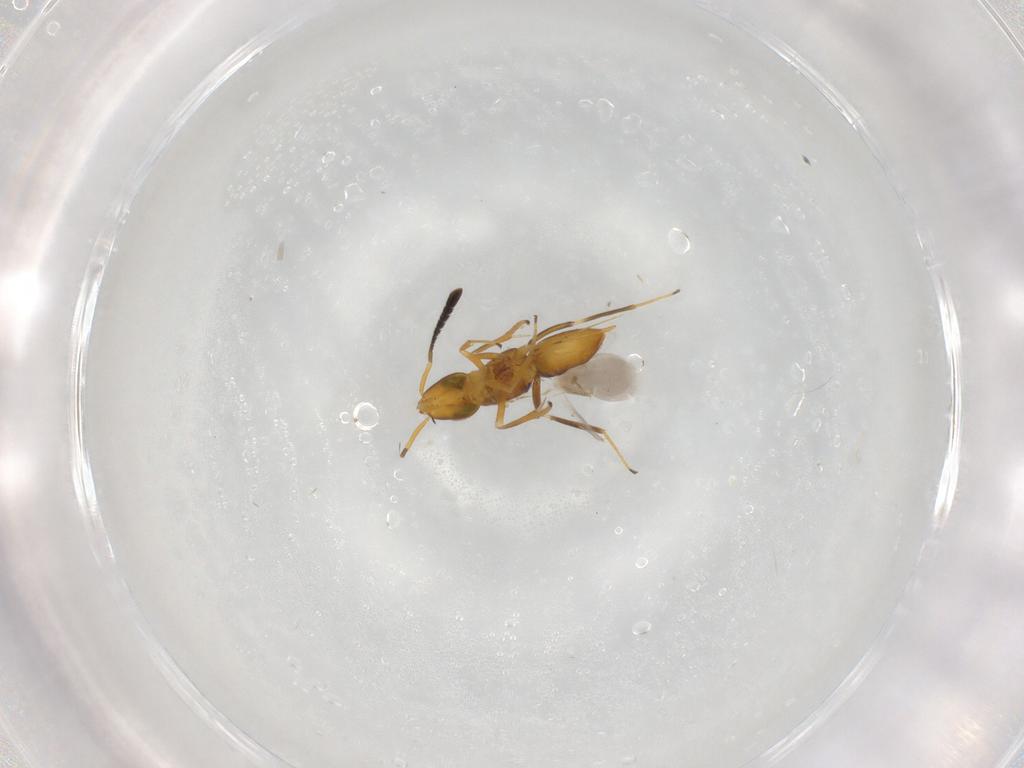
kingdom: Animalia
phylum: Arthropoda
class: Insecta
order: Hymenoptera
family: Encyrtidae
